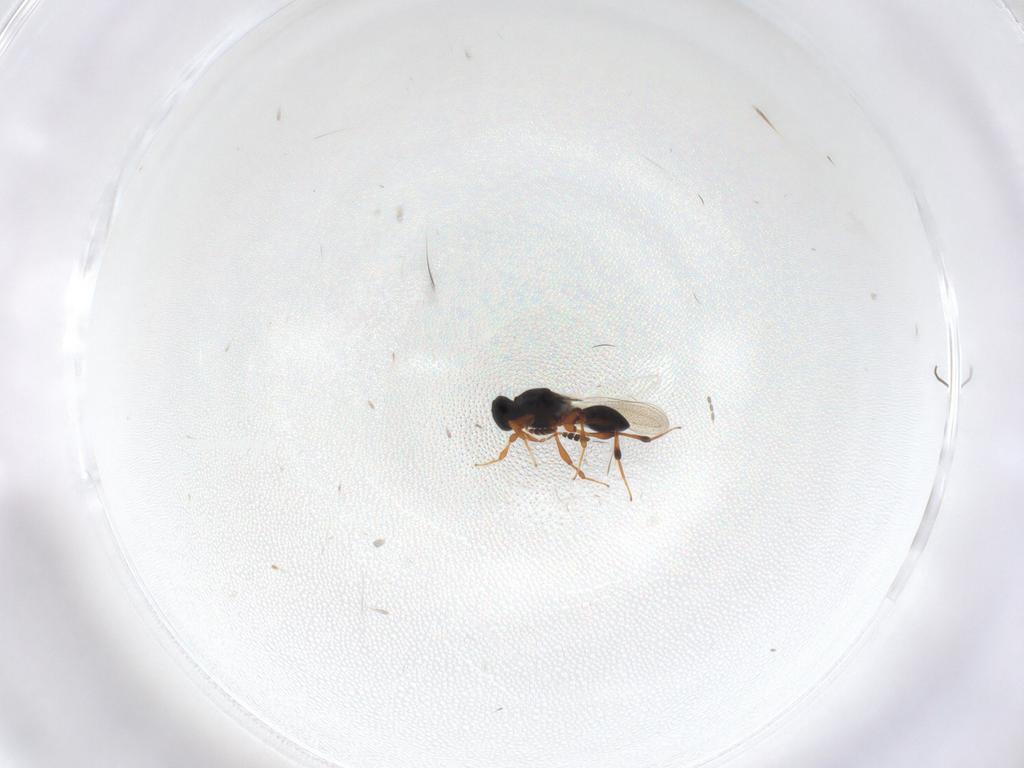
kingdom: Animalia
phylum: Arthropoda
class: Insecta
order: Hymenoptera
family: Platygastridae
